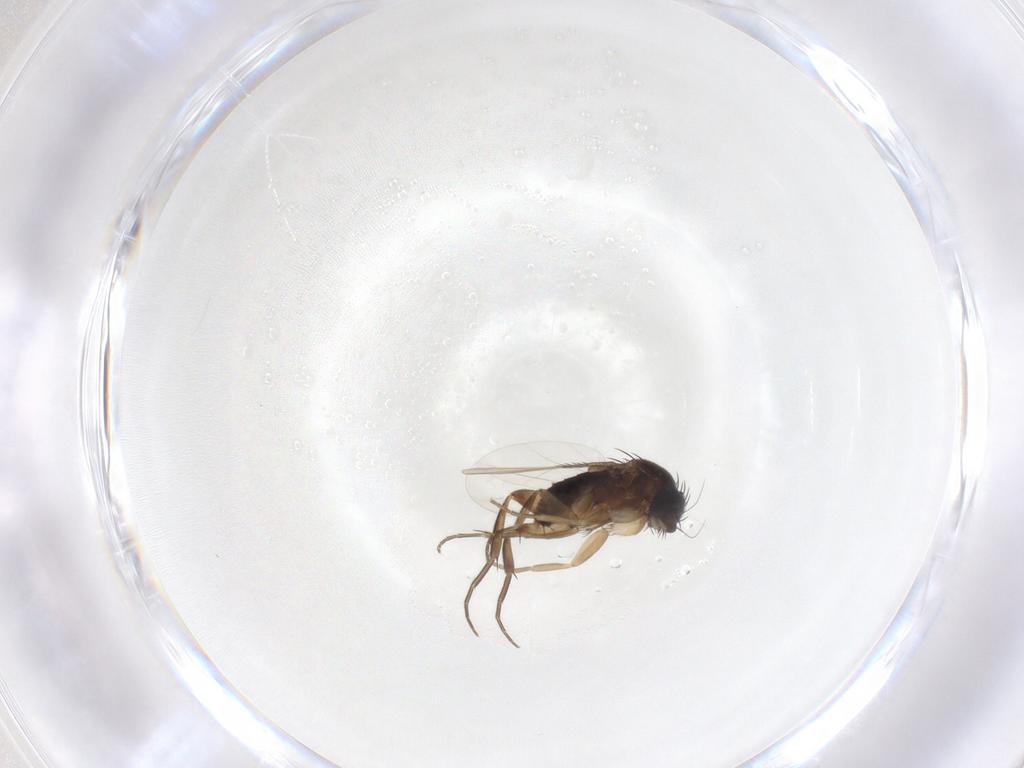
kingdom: Animalia
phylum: Arthropoda
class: Insecta
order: Diptera
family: Phoridae
